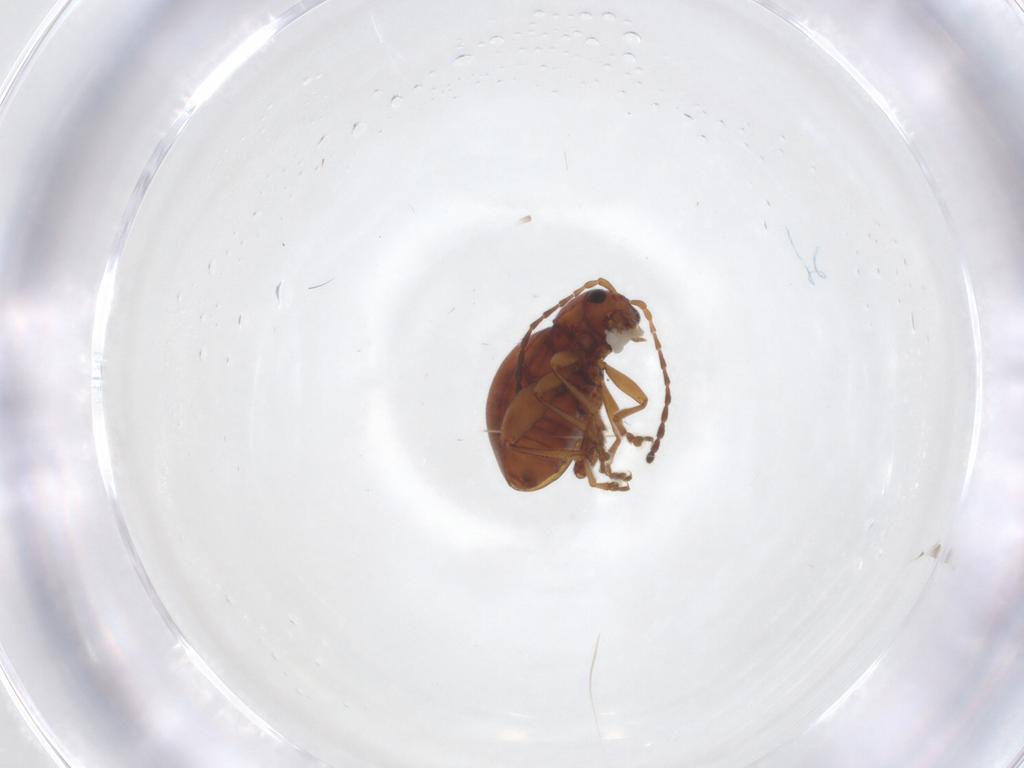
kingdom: Animalia
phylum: Arthropoda
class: Insecta
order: Coleoptera
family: Chrysomelidae
